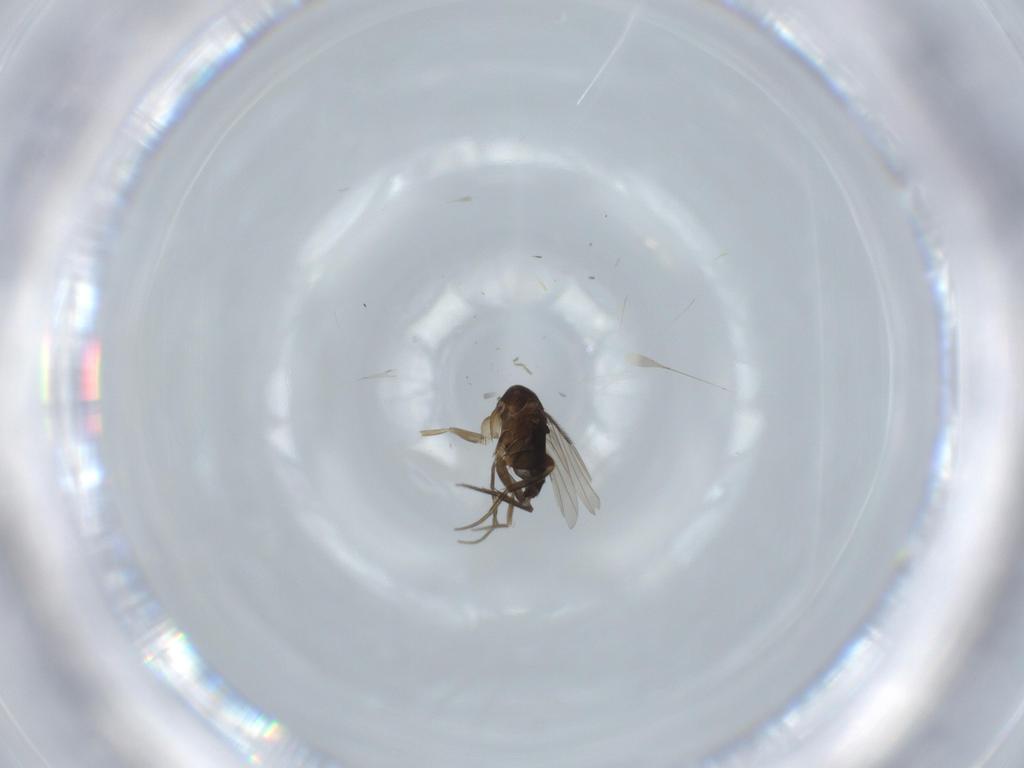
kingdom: Animalia
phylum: Arthropoda
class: Insecta
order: Diptera
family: Phoridae
